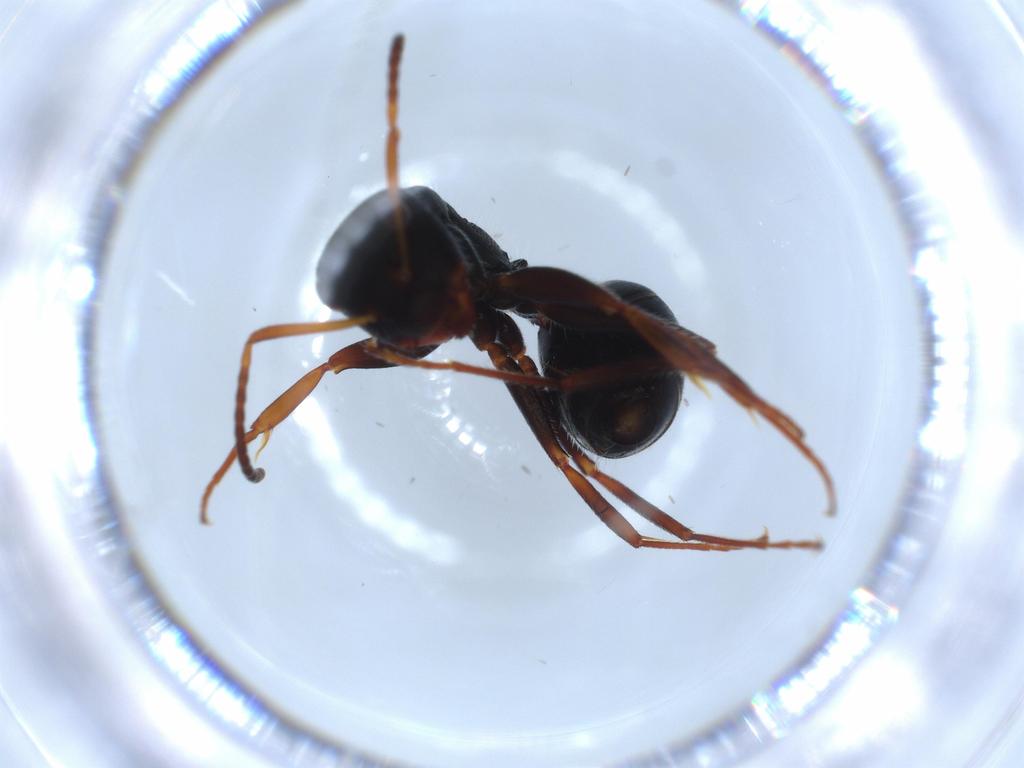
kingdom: Animalia
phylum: Arthropoda
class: Insecta
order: Hymenoptera
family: Formicidae
